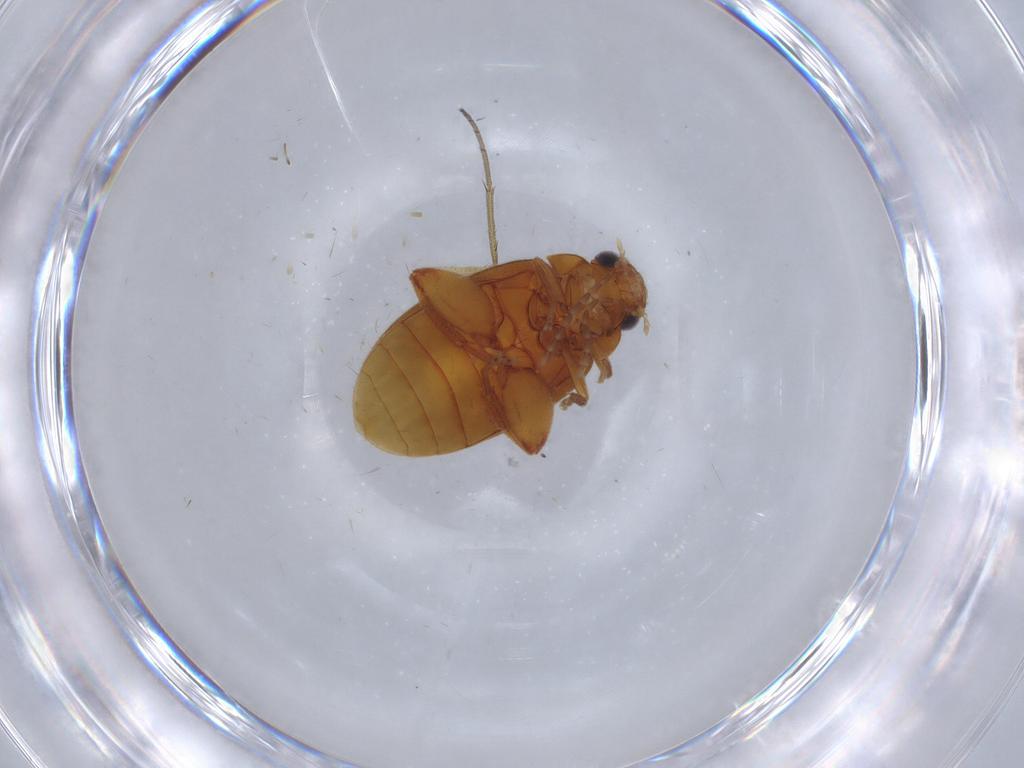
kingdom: Animalia
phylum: Arthropoda
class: Insecta
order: Coleoptera
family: Scirtidae
